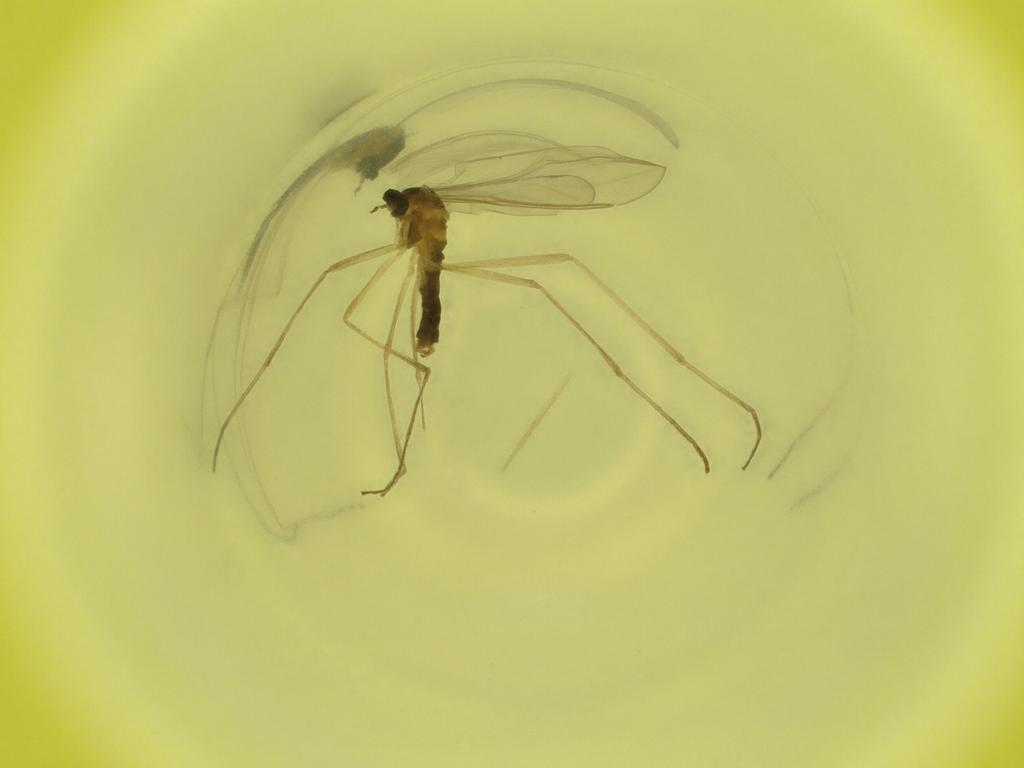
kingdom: Animalia
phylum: Arthropoda
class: Insecta
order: Diptera
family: Cecidomyiidae
